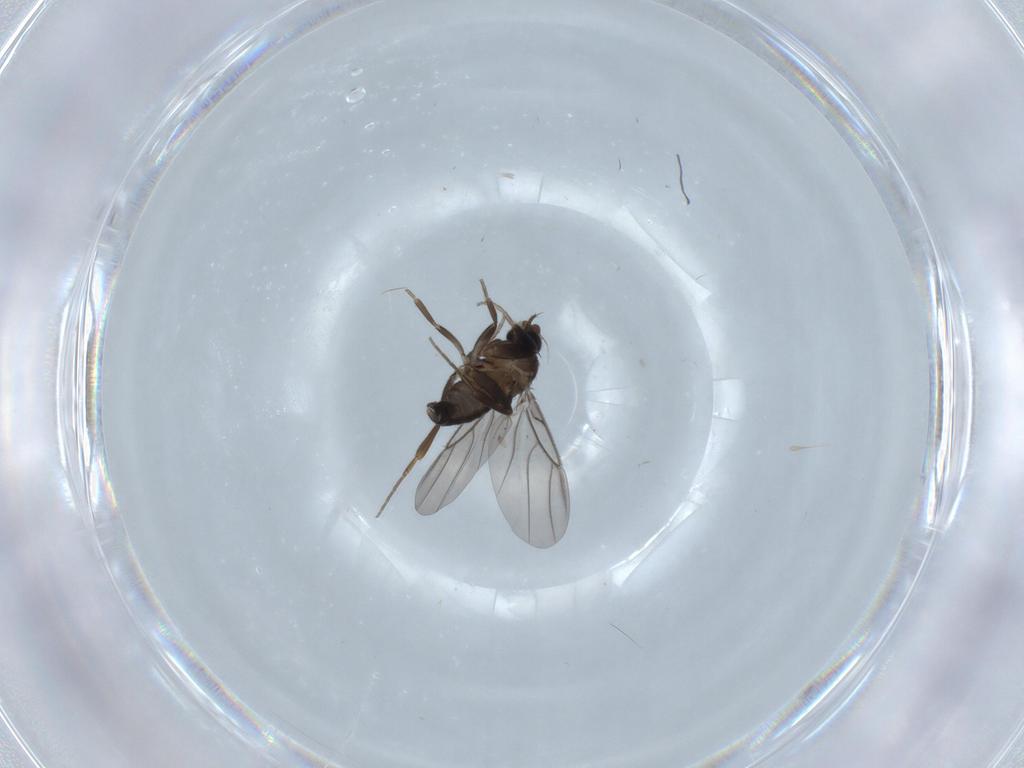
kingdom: Animalia
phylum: Arthropoda
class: Insecta
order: Diptera
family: Phoridae
